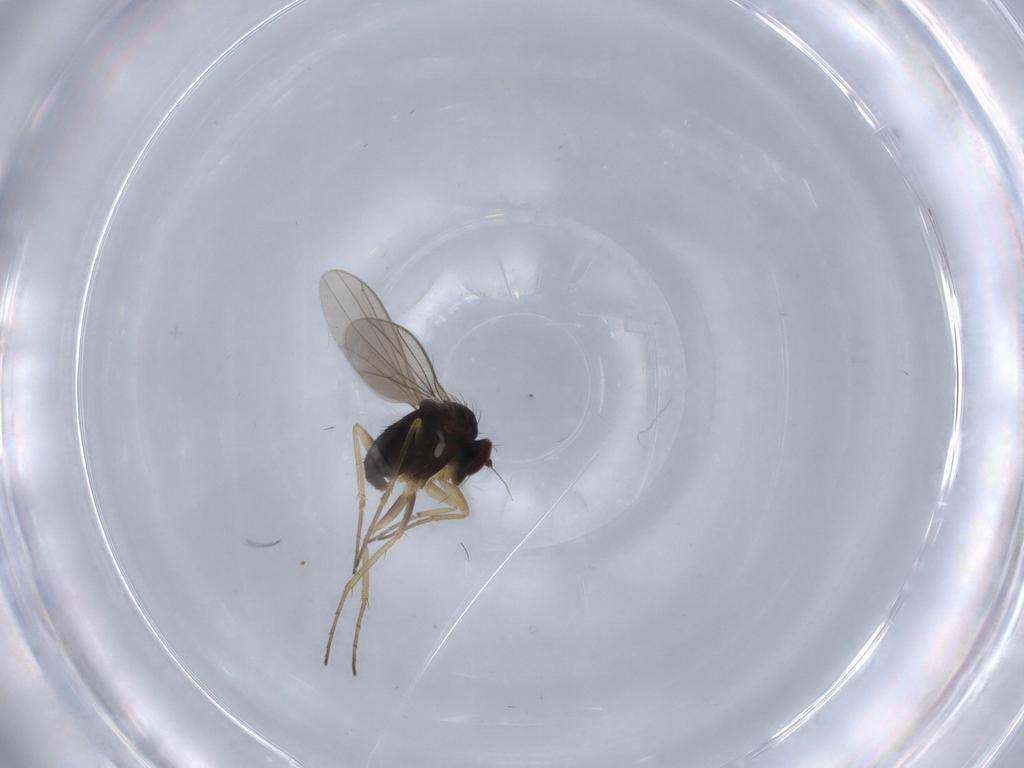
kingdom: Animalia
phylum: Arthropoda
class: Insecta
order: Diptera
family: Dolichopodidae
